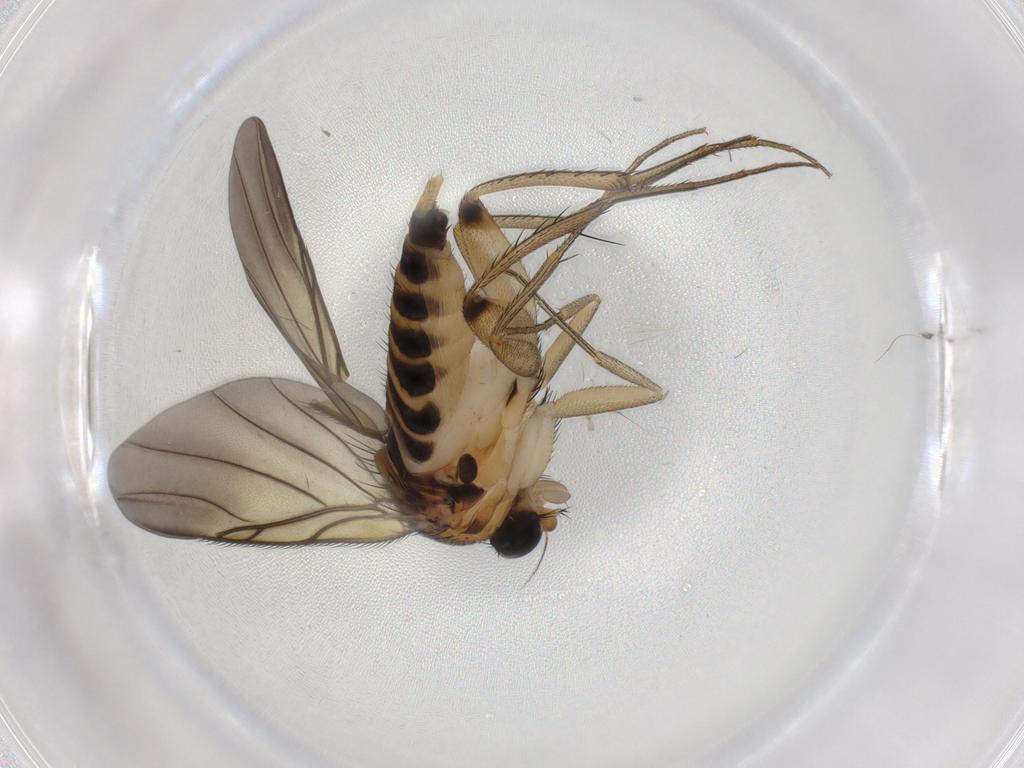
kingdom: Animalia
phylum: Arthropoda
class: Insecta
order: Diptera
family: Sciaridae
